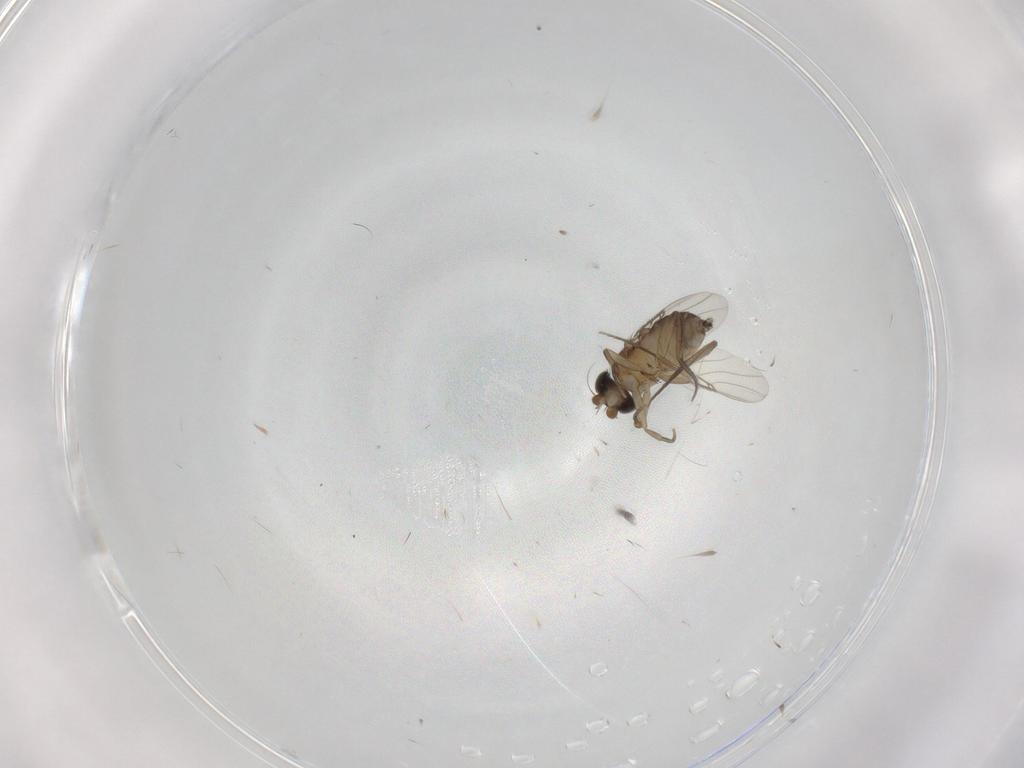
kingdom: Animalia
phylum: Arthropoda
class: Insecta
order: Diptera
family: Phoridae
